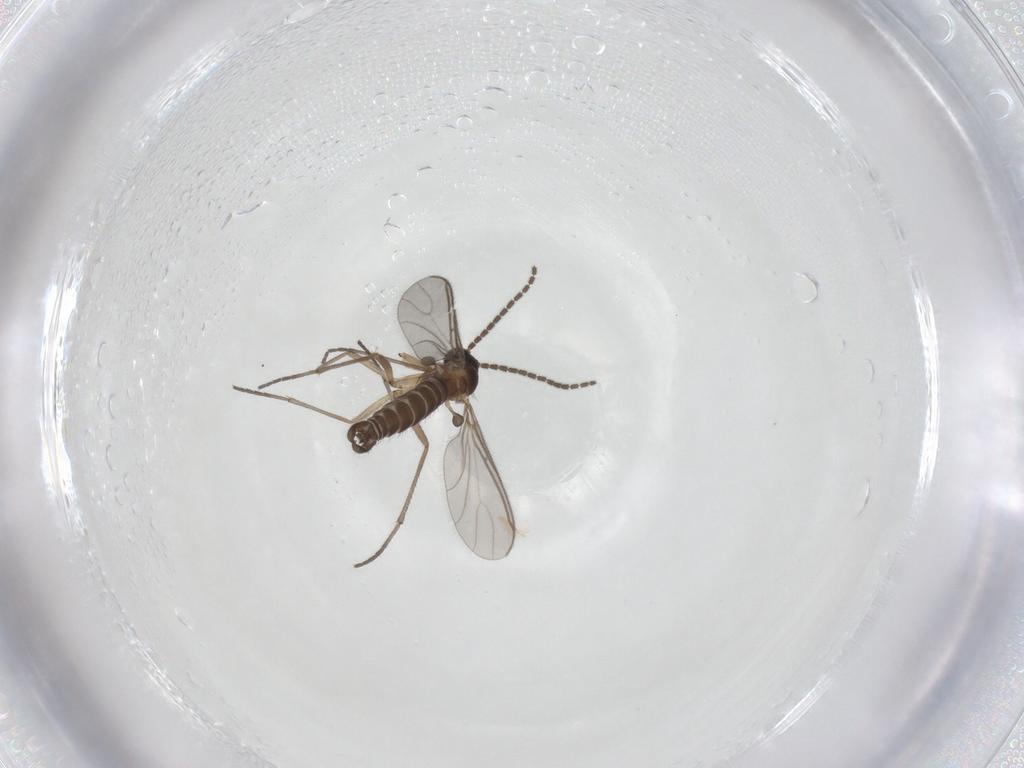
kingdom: Animalia
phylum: Arthropoda
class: Insecta
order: Diptera
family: Sciaridae
